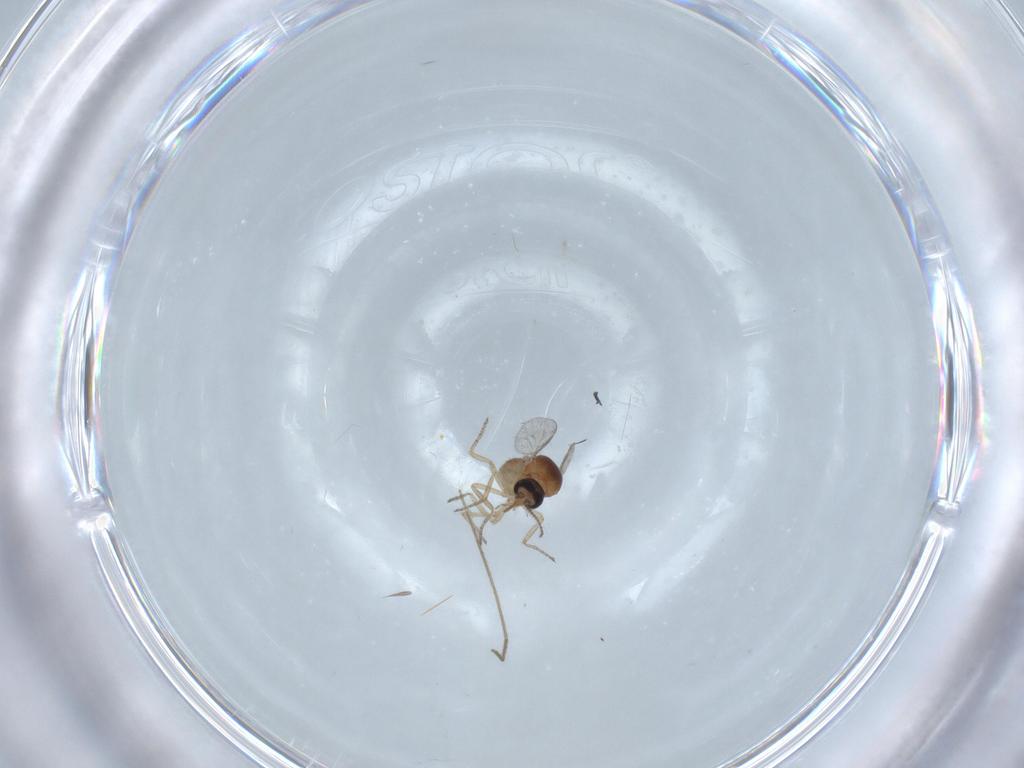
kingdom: Animalia
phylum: Arthropoda
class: Insecta
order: Diptera
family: Ceratopogonidae
